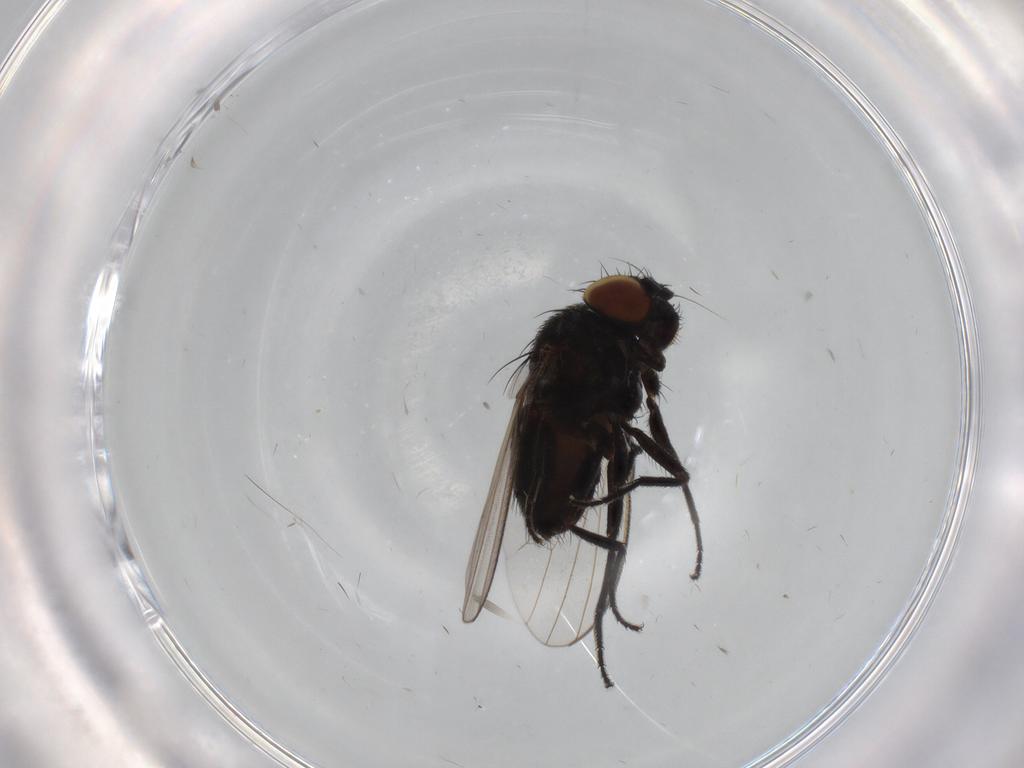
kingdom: Animalia
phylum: Arthropoda
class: Insecta
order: Diptera
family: Milichiidae
